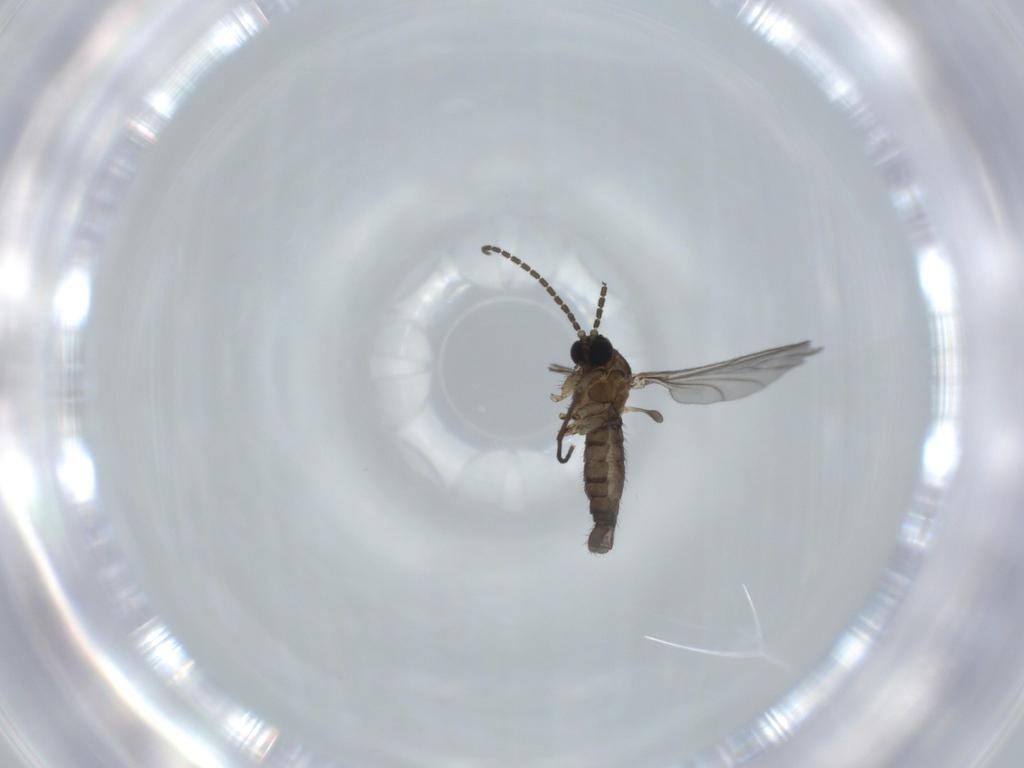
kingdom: Animalia
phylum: Arthropoda
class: Insecta
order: Diptera
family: Sciaridae
